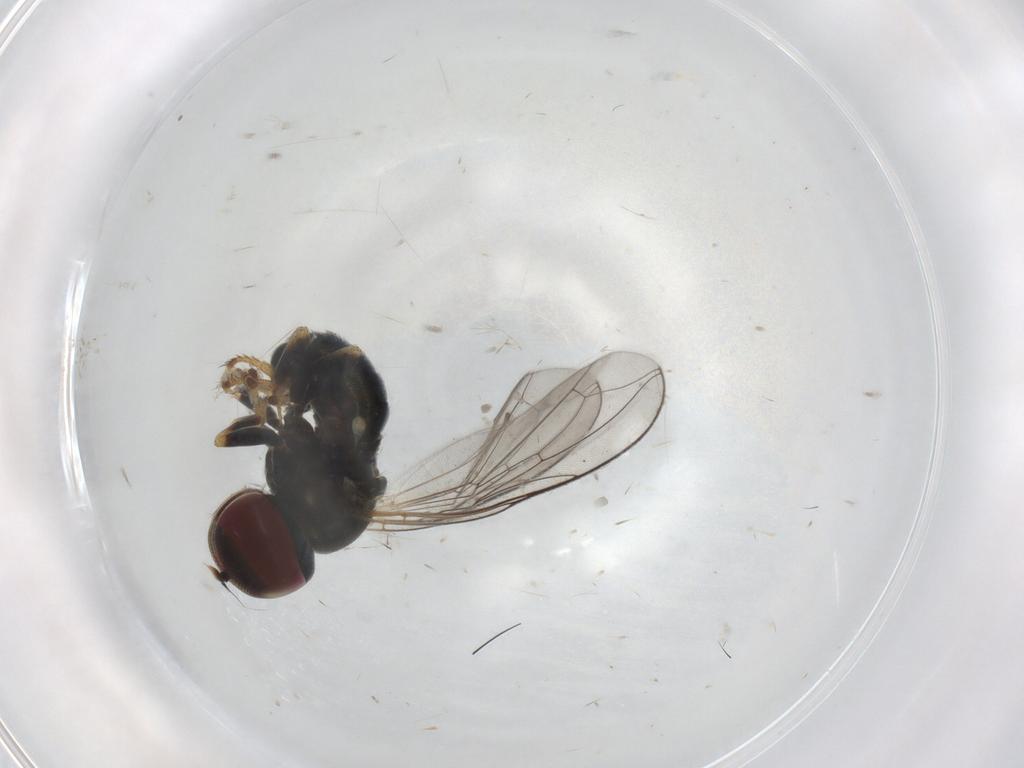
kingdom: Animalia
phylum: Arthropoda
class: Insecta
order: Diptera
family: Pipunculidae
